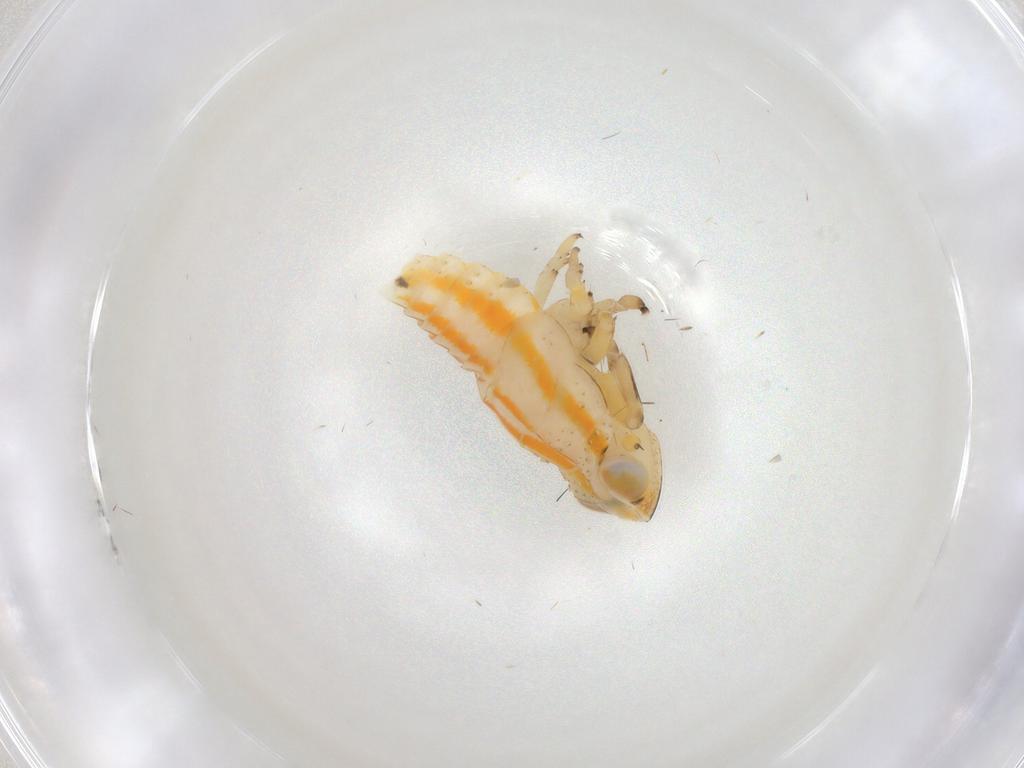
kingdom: Animalia
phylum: Arthropoda
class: Insecta
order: Hemiptera
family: Issidae
